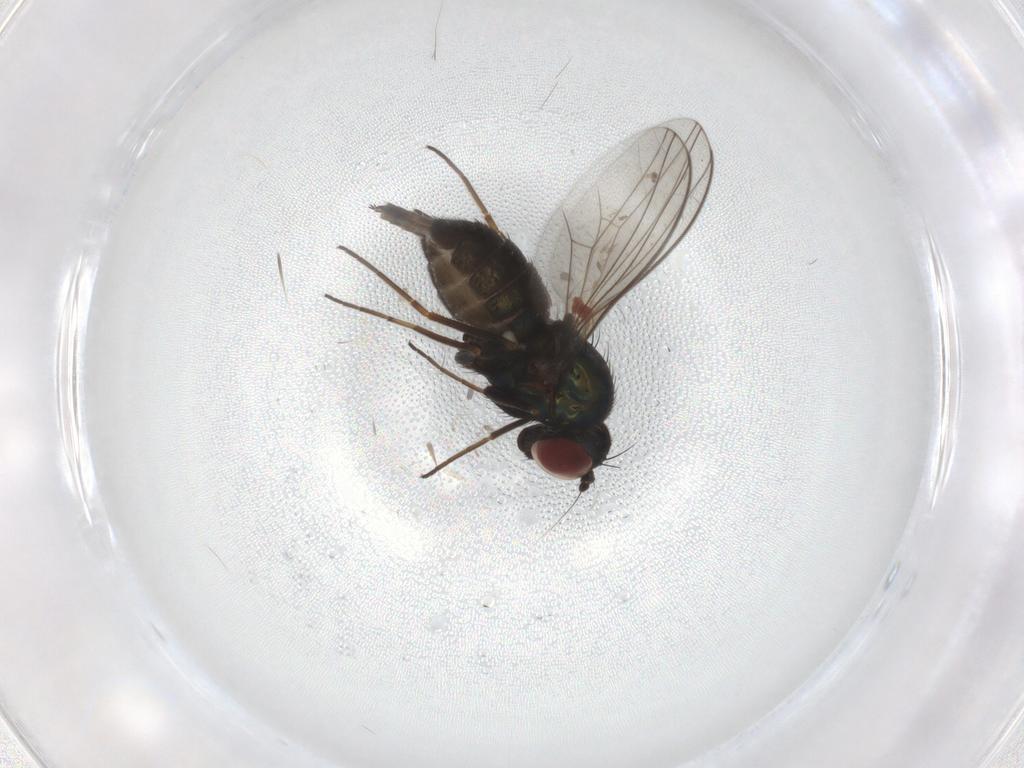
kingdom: Animalia
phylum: Arthropoda
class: Insecta
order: Diptera
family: Dolichopodidae
